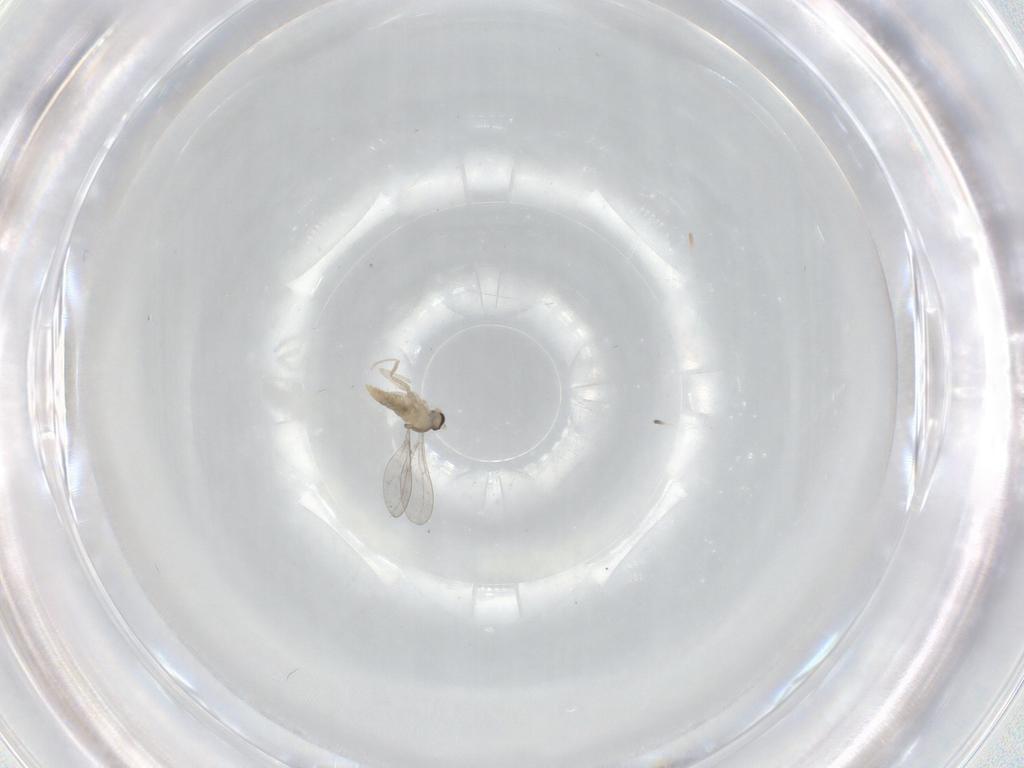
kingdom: Animalia
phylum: Arthropoda
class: Insecta
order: Diptera
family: Cecidomyiidae
